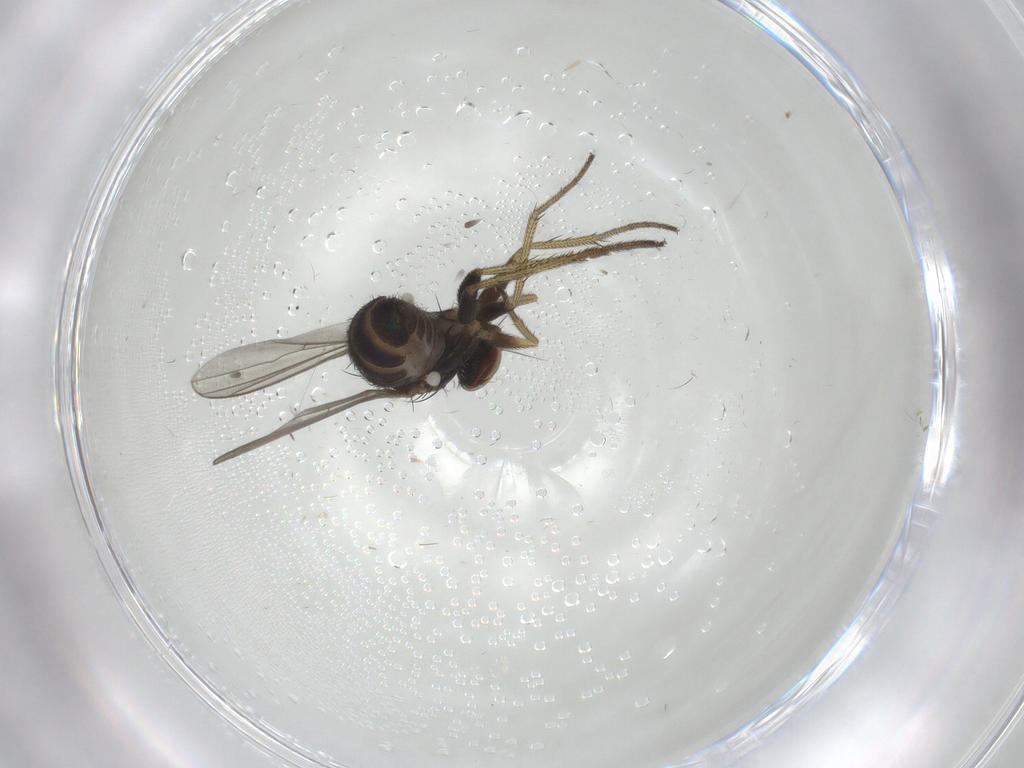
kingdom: Animalia
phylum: Arthropoda
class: Insecta
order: Diptera
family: Dolichopodidae
